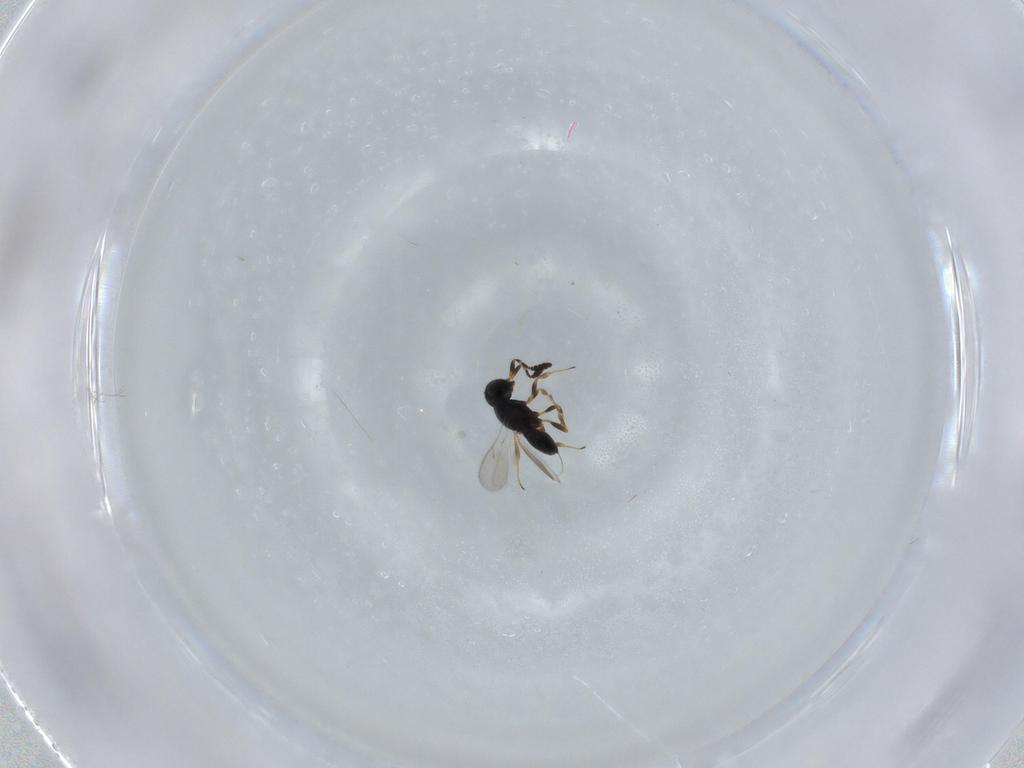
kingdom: Animalia
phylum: Arthropoda
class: Insecta
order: Hymenoptera
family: Scelionidae
